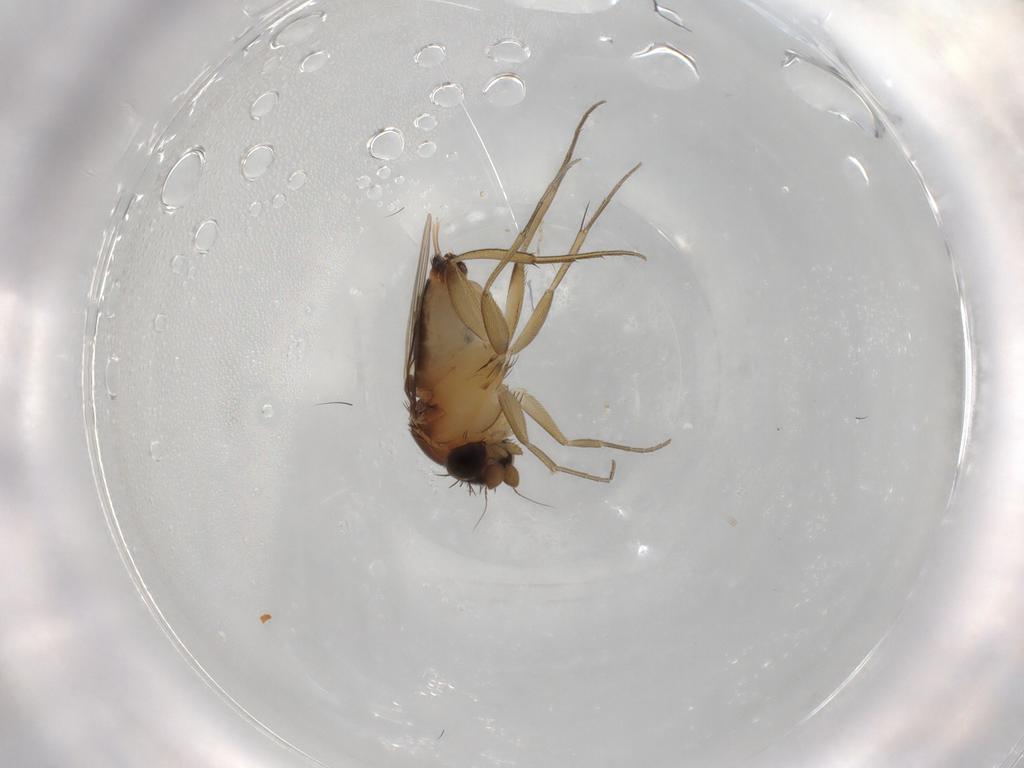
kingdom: Animalia
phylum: Arthropoda
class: Insecta
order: Diptera
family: Phoridae
